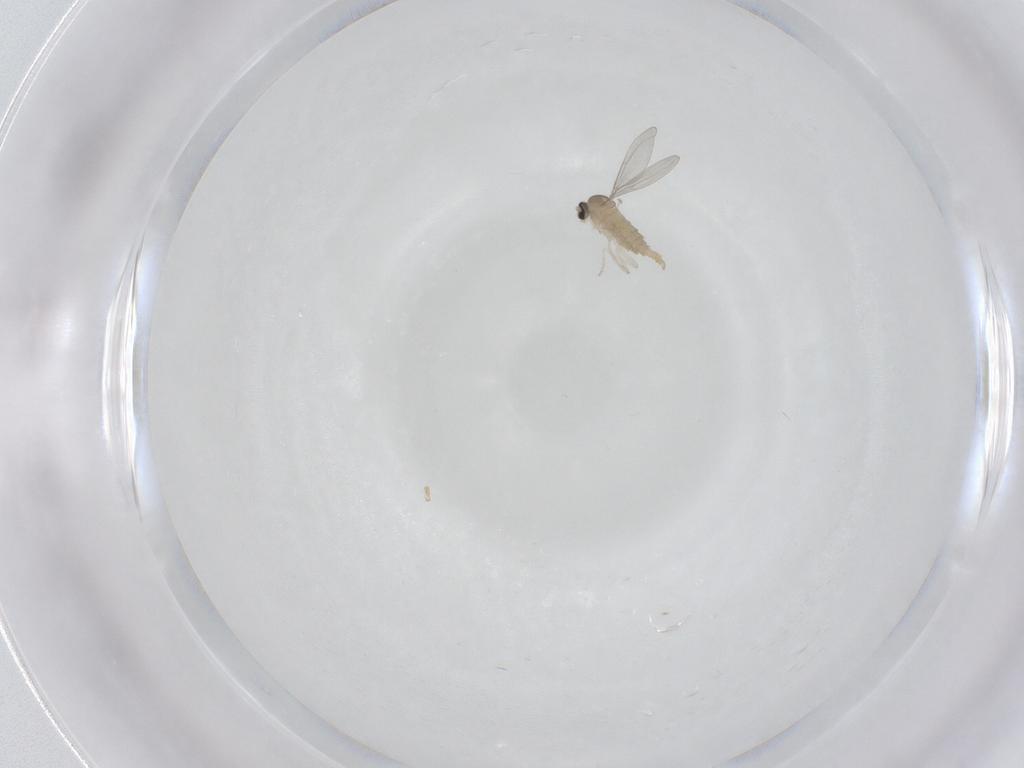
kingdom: Animalia
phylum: Arthropoda
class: Insecta
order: Diptera
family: Cecidomyiidae
